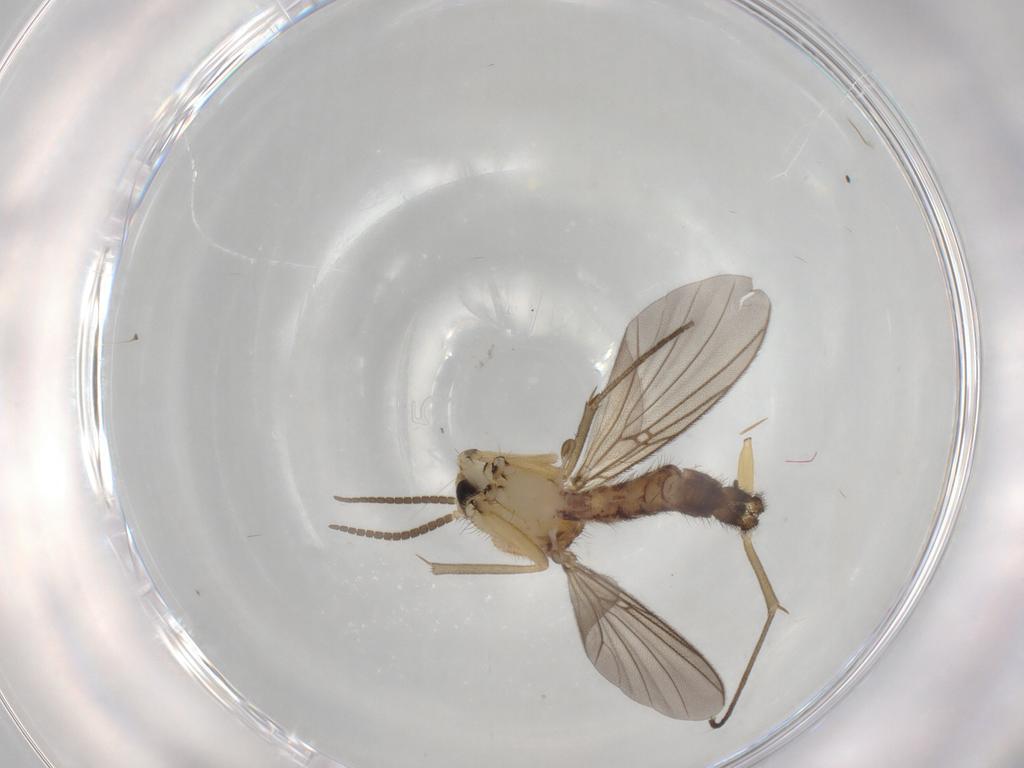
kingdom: Animalia
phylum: Arthropoda
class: Insecta
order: Diptera
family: Mycetophilidae
